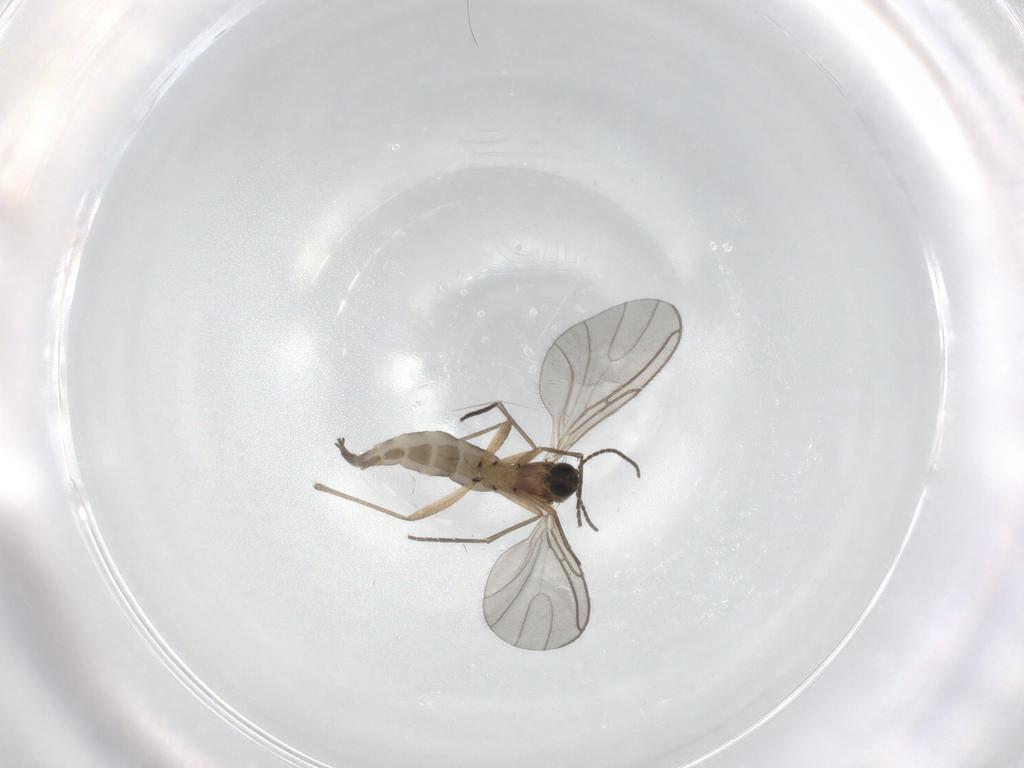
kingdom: Animalia
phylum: Arthropoda
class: Insecta
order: Diptera
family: Sciaridae
